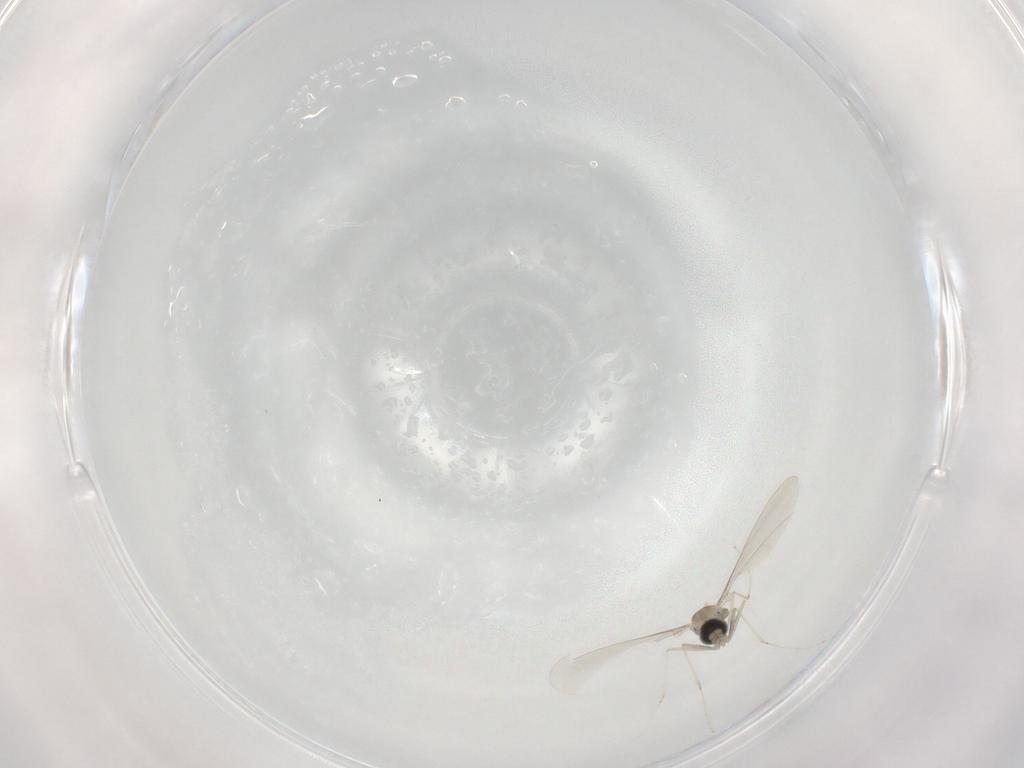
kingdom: Animalia
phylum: Arthropoda
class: Insecta
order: Diptera
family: Cecidomyiidae
